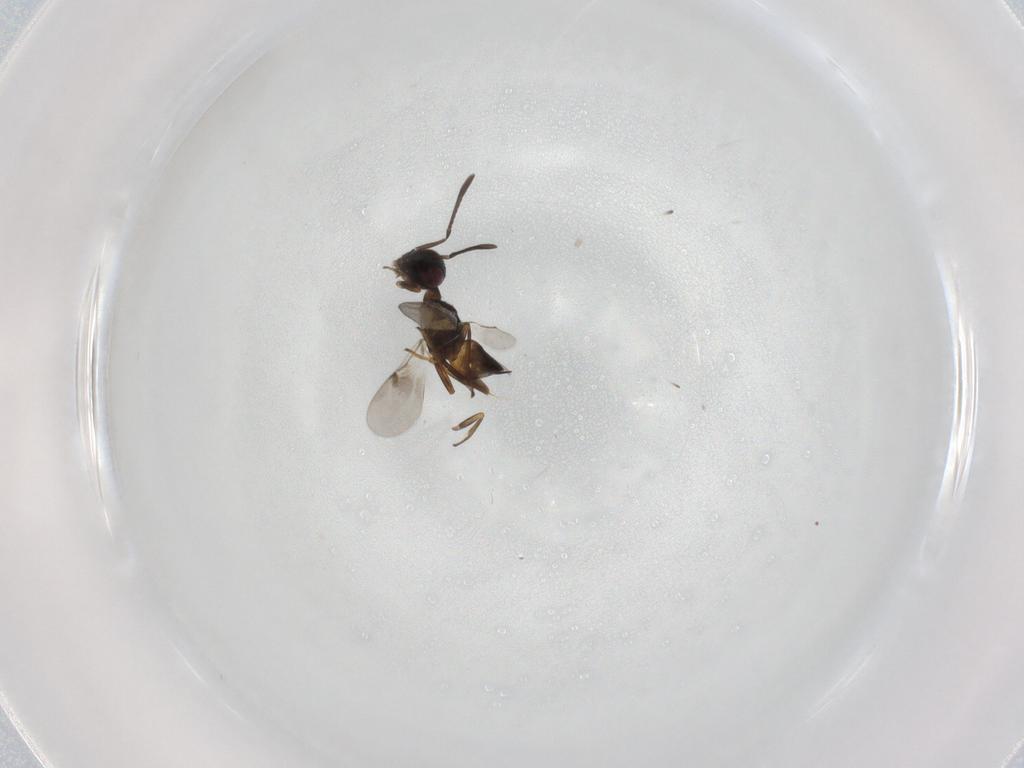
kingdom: Animalia
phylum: Arthropoda
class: Insecta
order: Hymenoptera
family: Encyrtidae
